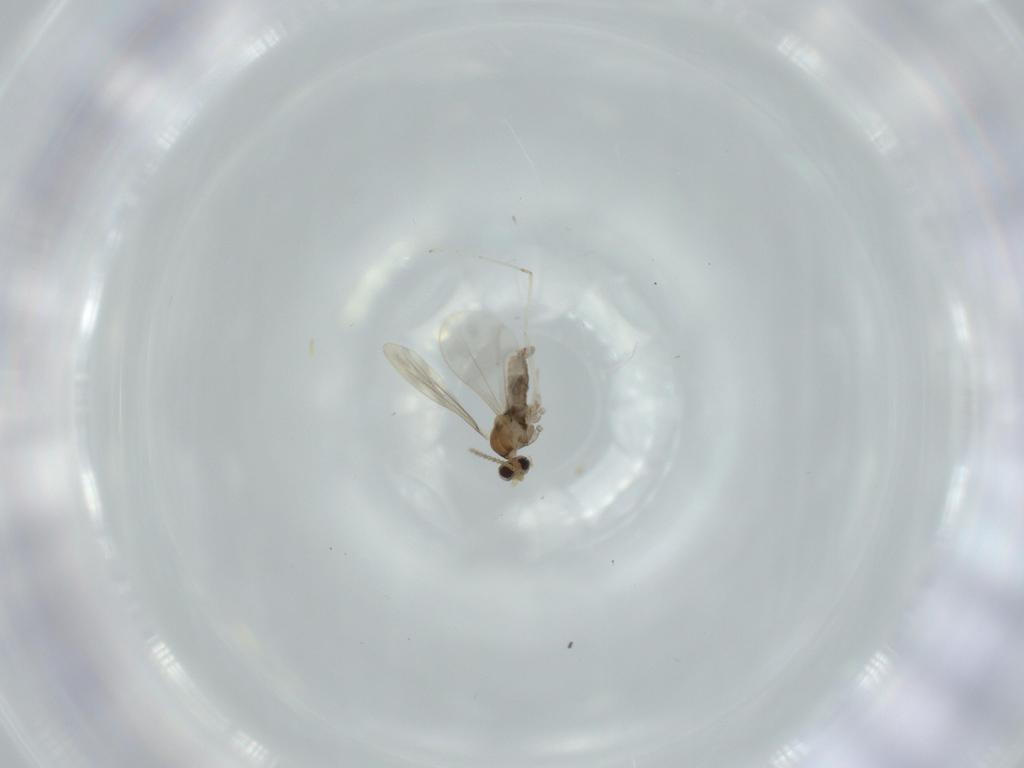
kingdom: Animalia
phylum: Arthropoda
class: Insecta
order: Diptera
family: Cecidomyiidae
